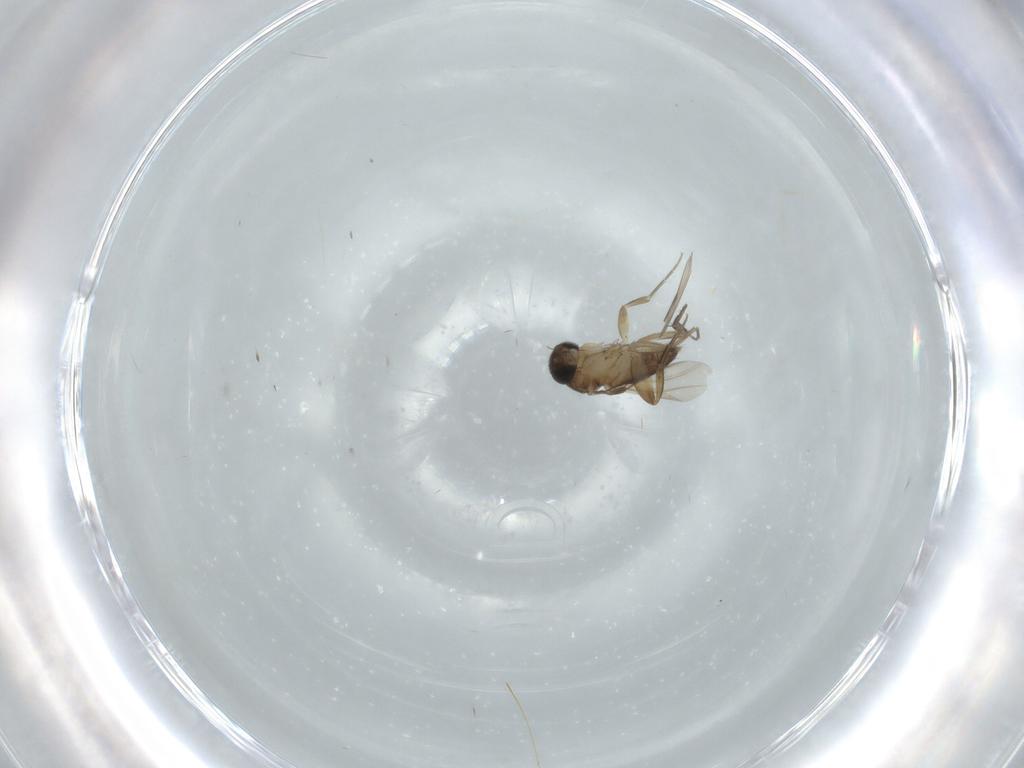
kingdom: Animalia
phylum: Arthropoda
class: Insecta
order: Diptera
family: Phoridae
